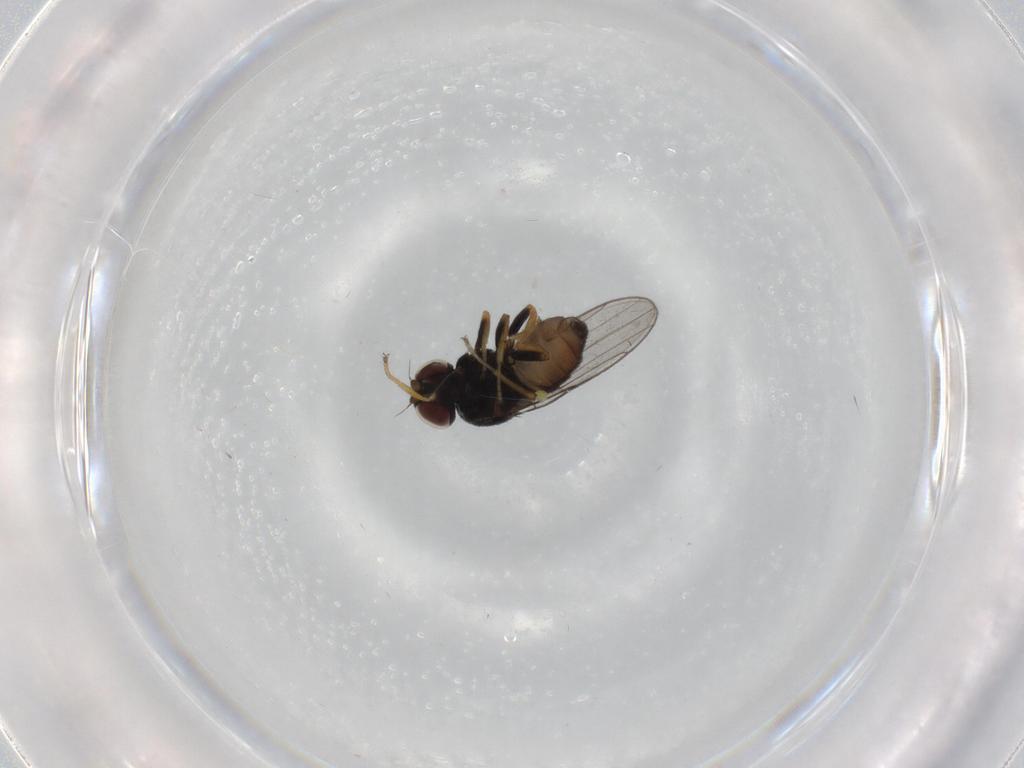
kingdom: Animalia
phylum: Arthropoda
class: Insecta
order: Diptera
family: Chloropidae
